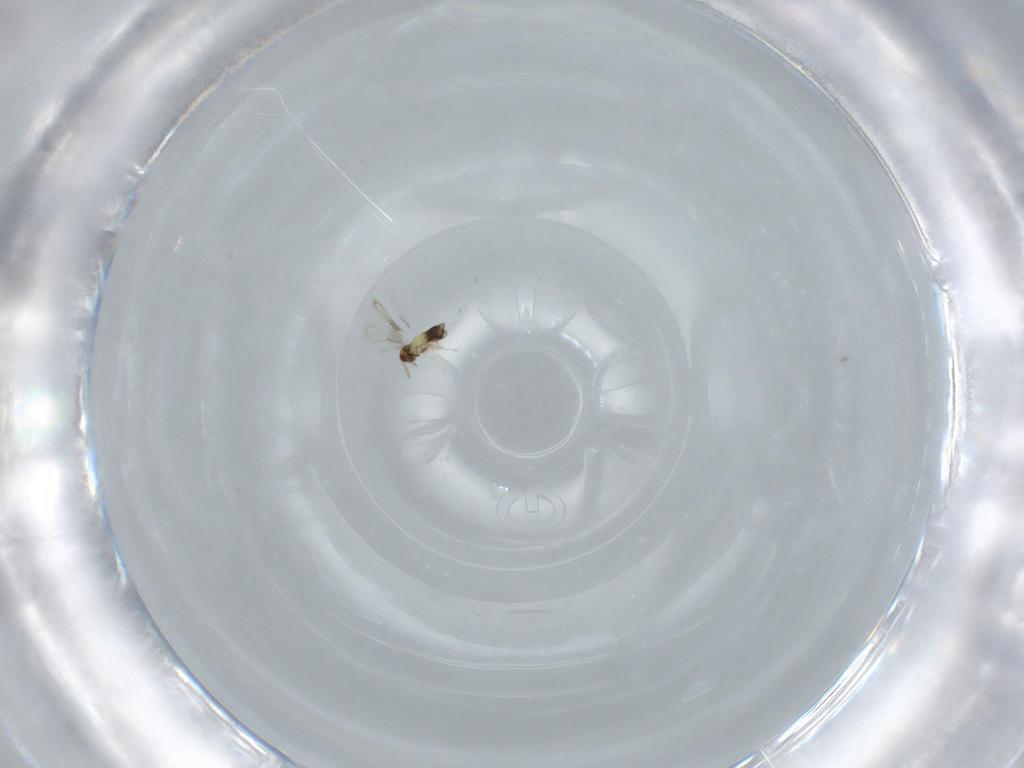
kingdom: Animalia
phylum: Arthropoda
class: Insecta
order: Hymenoptera
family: Aphelinidae
